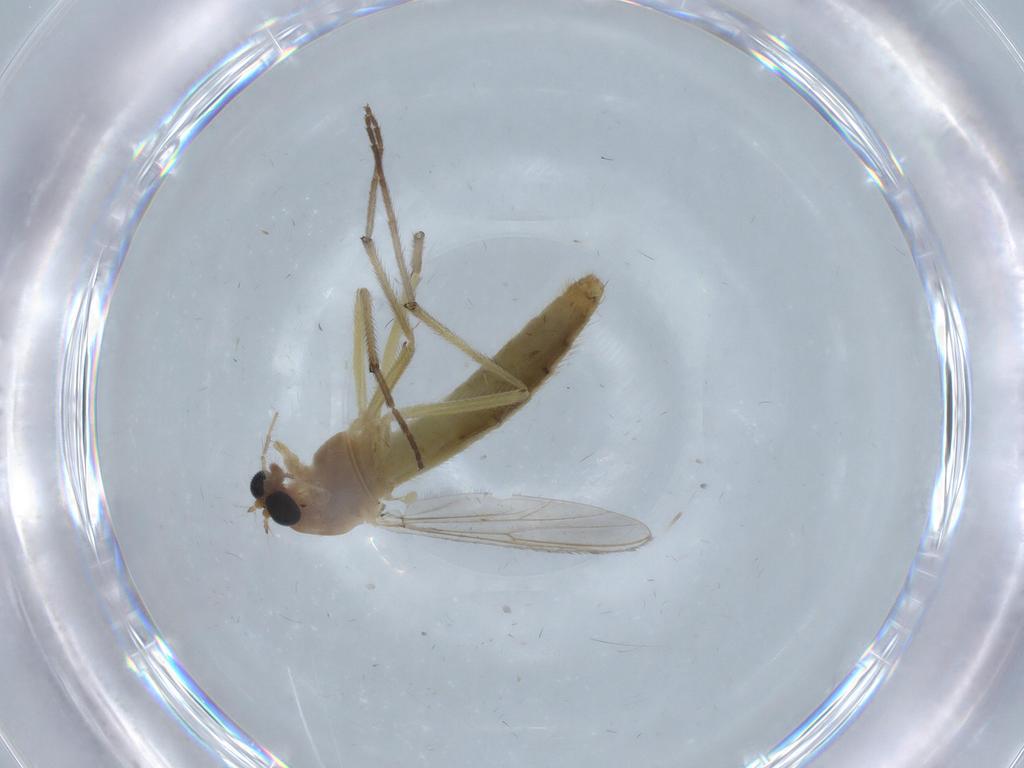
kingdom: Animalia
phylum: Arthropoda
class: Insecta
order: Diptera
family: Chironomidae
